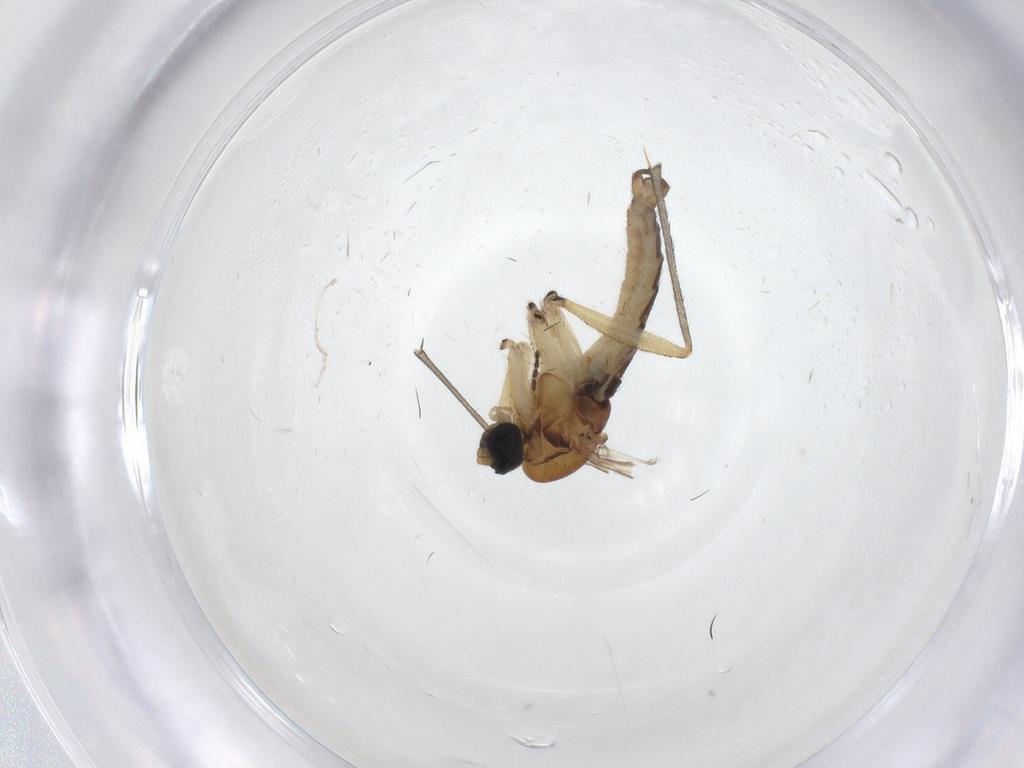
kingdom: Animalia
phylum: Arthropoda
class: Insecta
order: Diptera
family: Sciaridae
